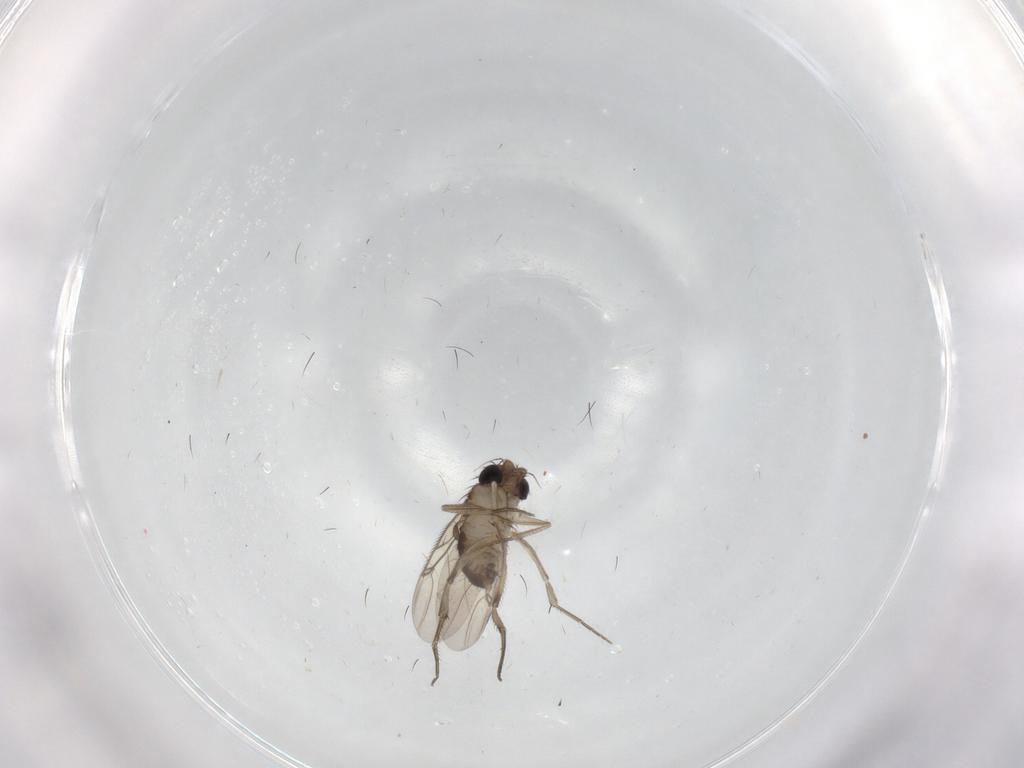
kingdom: Animalia
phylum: Arthropoda
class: Insecta
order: Diptera
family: Phoridae
